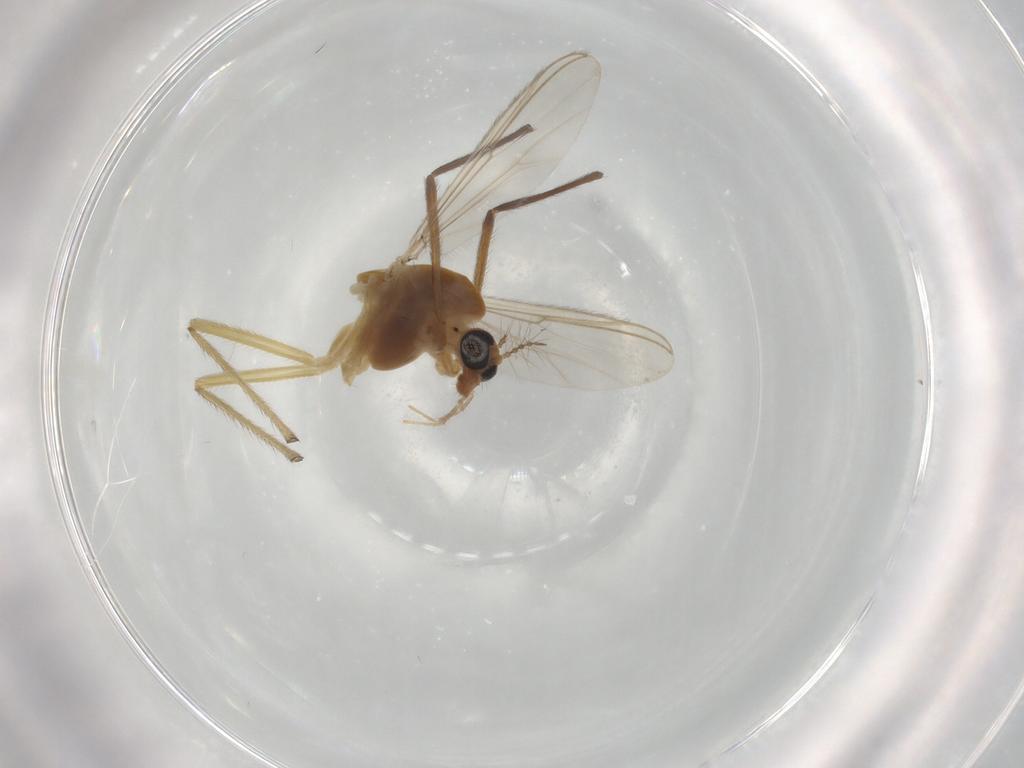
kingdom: Animalia
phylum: Arthropoda
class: Insecta
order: Diptera
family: Chironomidae
